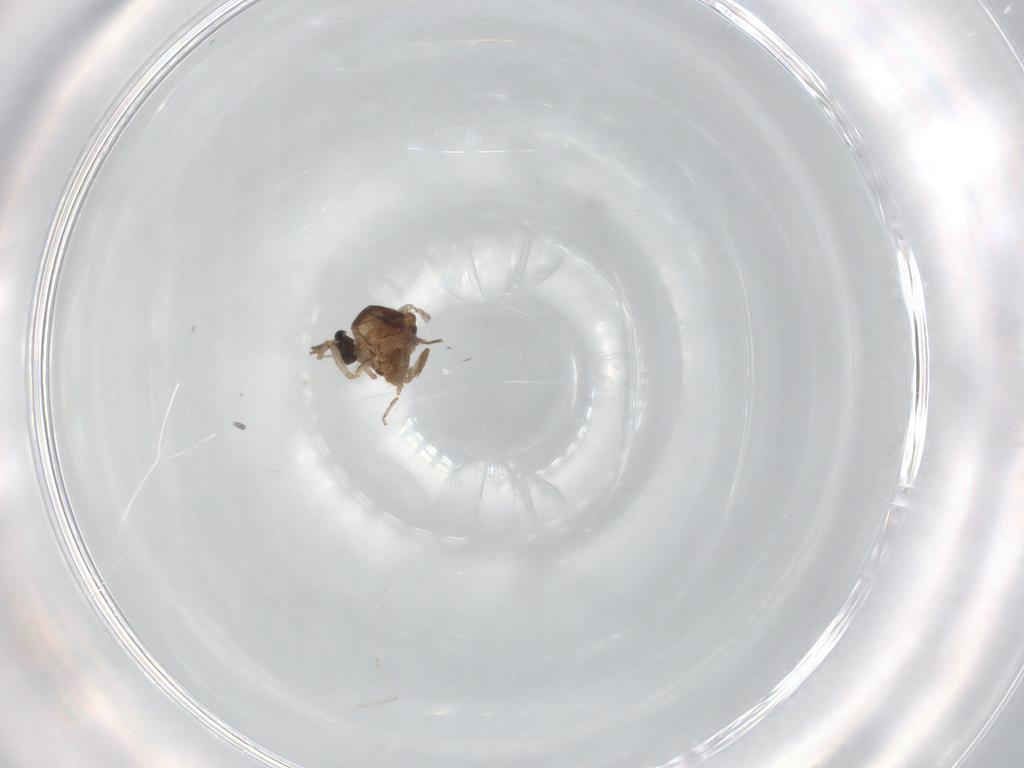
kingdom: Animalia
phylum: Arthropoda
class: Insecta
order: Diptera
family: Ceratopogonidae
